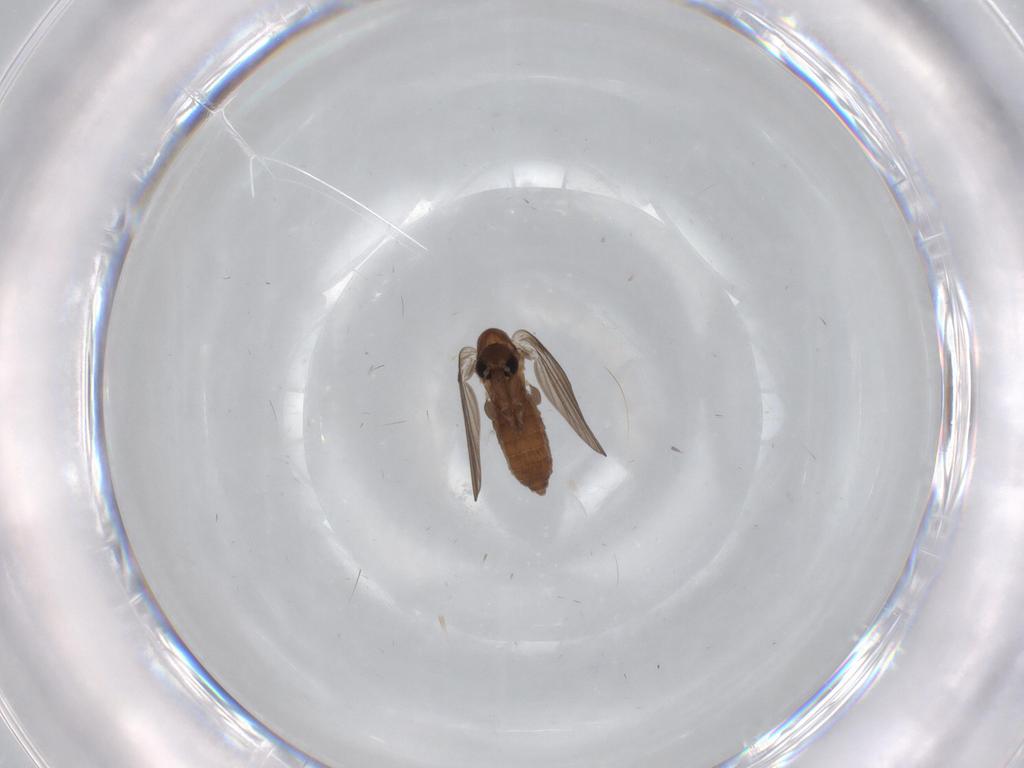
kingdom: Animalia
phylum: Arthropoda
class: Insecta
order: Diptera
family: Psychodidae
